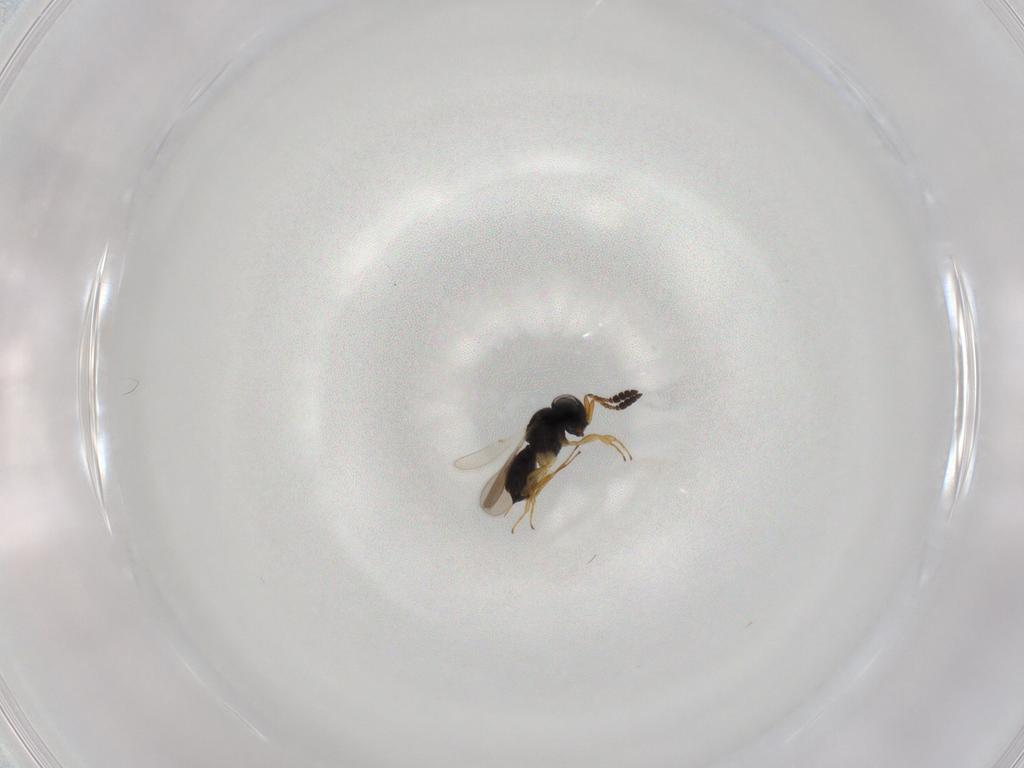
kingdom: Animalia
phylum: Arthropoda
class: Insecta
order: Hymenoptera
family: Scelionidae
